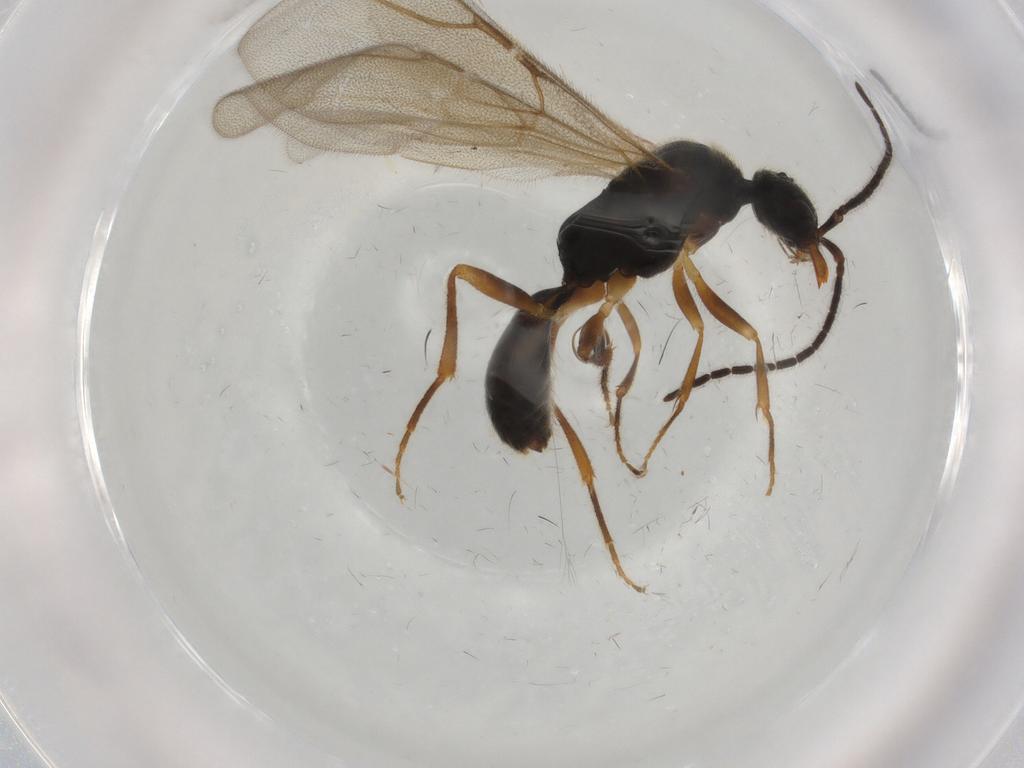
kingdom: Animalia
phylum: Arthropoda
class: Insecta
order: Hymenoptera
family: Bethylidae
